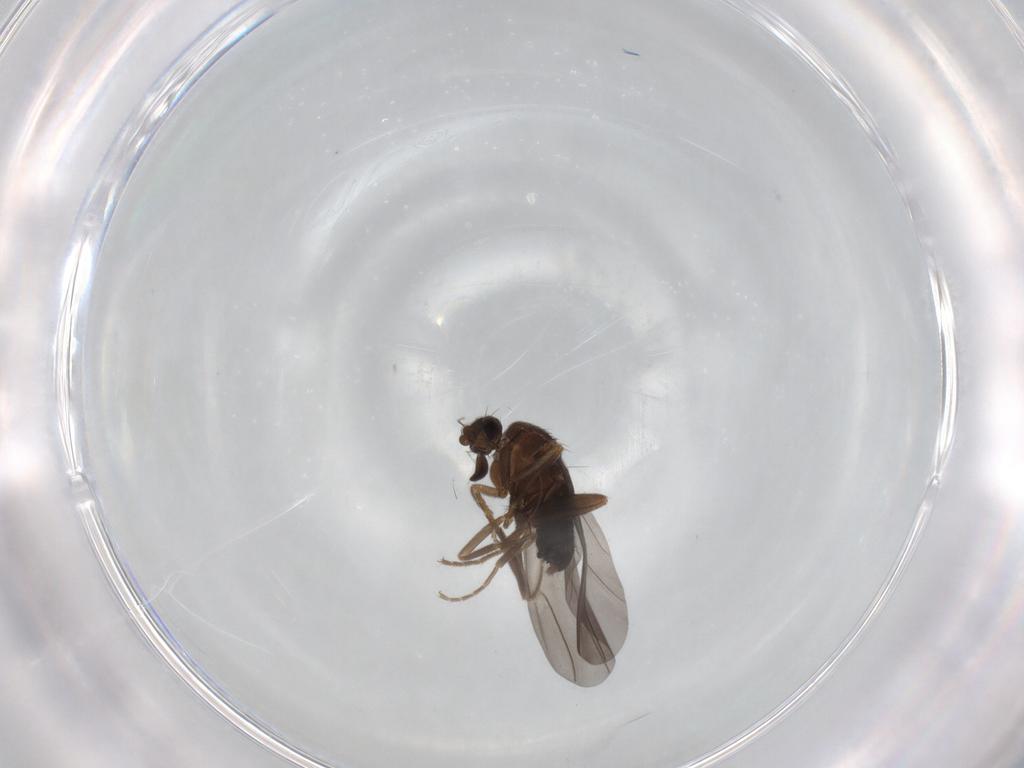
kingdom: Animalia
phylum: Arthropoda
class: Insecta
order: Diptera
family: Phoridae
